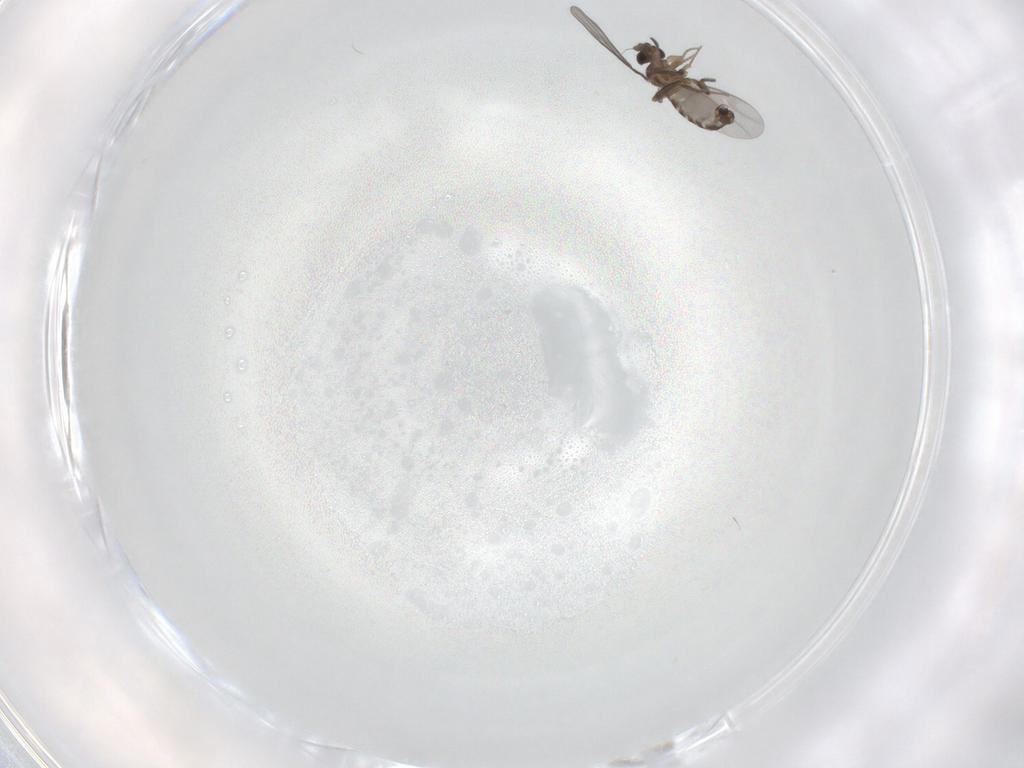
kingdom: Animalia
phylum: Arthropoda
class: Insecta
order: Diptera
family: Chironomidae
